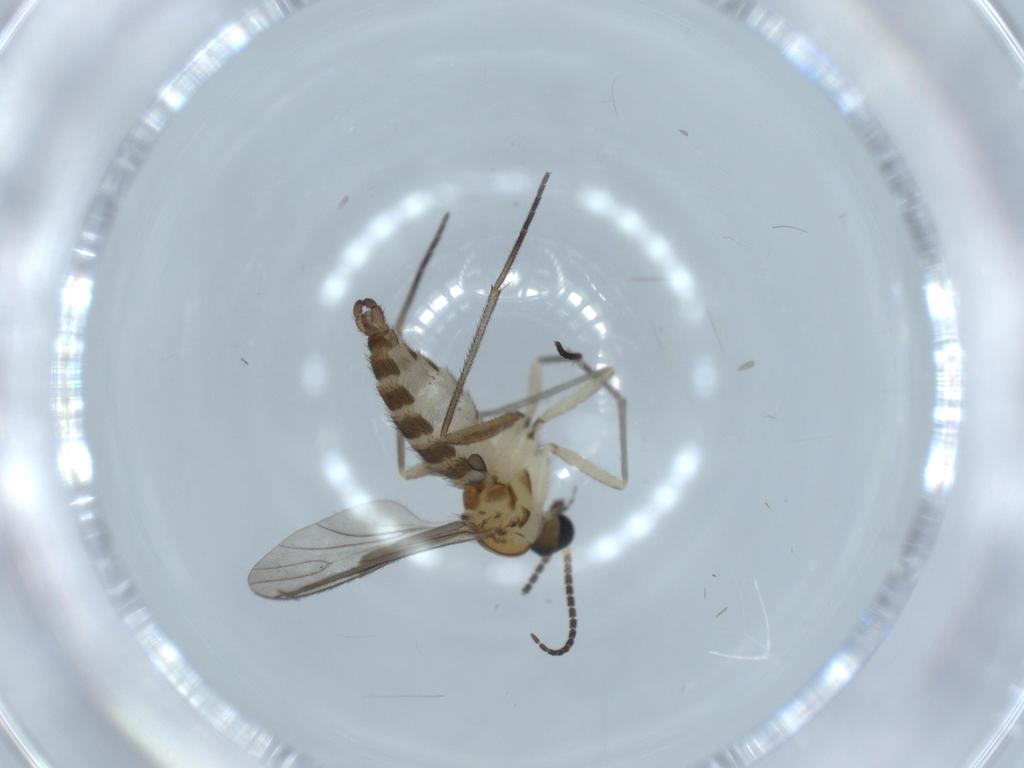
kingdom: Animalia
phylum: Arthropoda
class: Insecta
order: Diptera
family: Sciaridae
